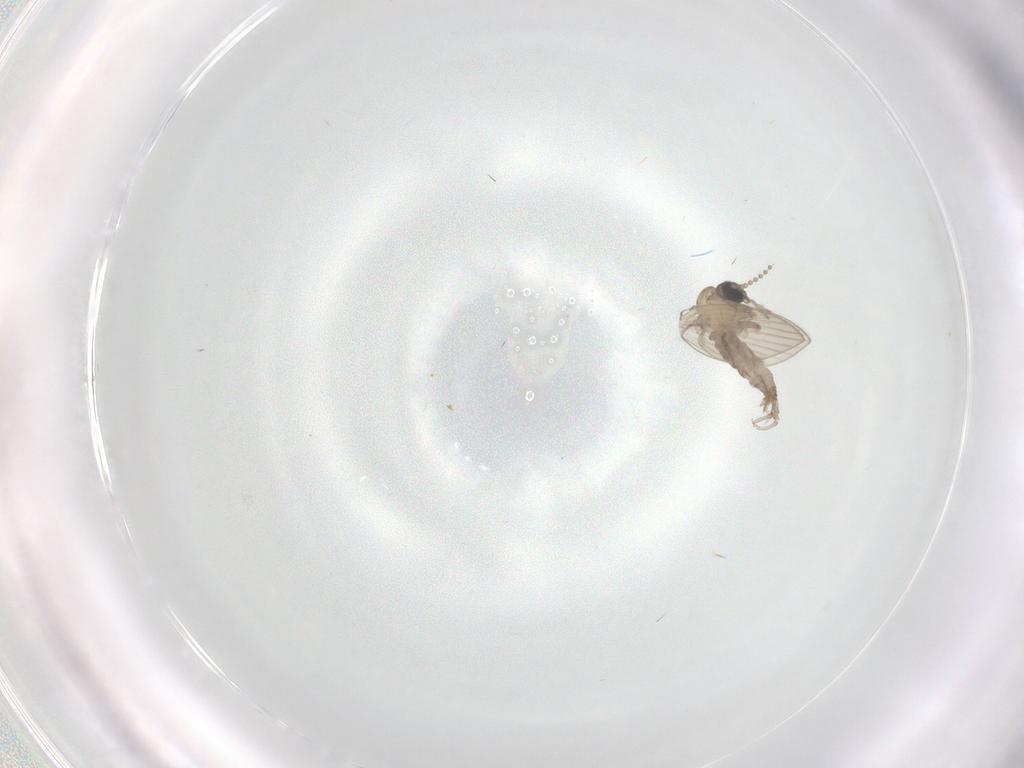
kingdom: Animalia
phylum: Arthropoda
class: Insecta
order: Diptera
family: Psychodidae
